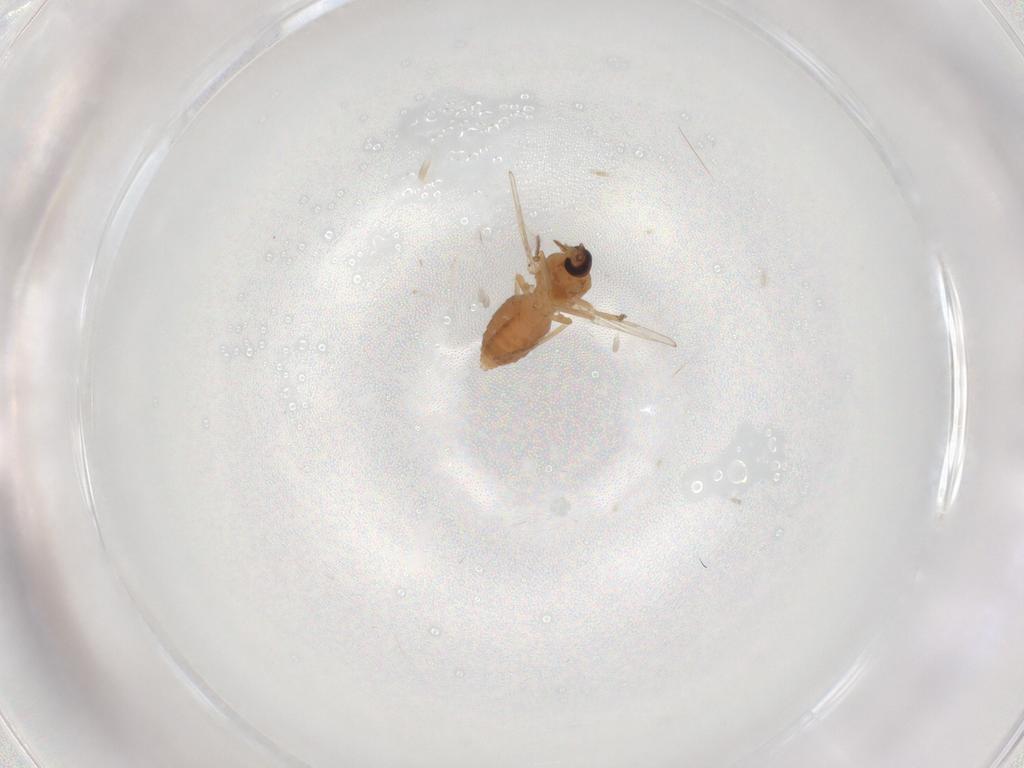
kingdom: Animalia
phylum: Arthropoda
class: Insecta
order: Diptera
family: Ceratopogonidae
